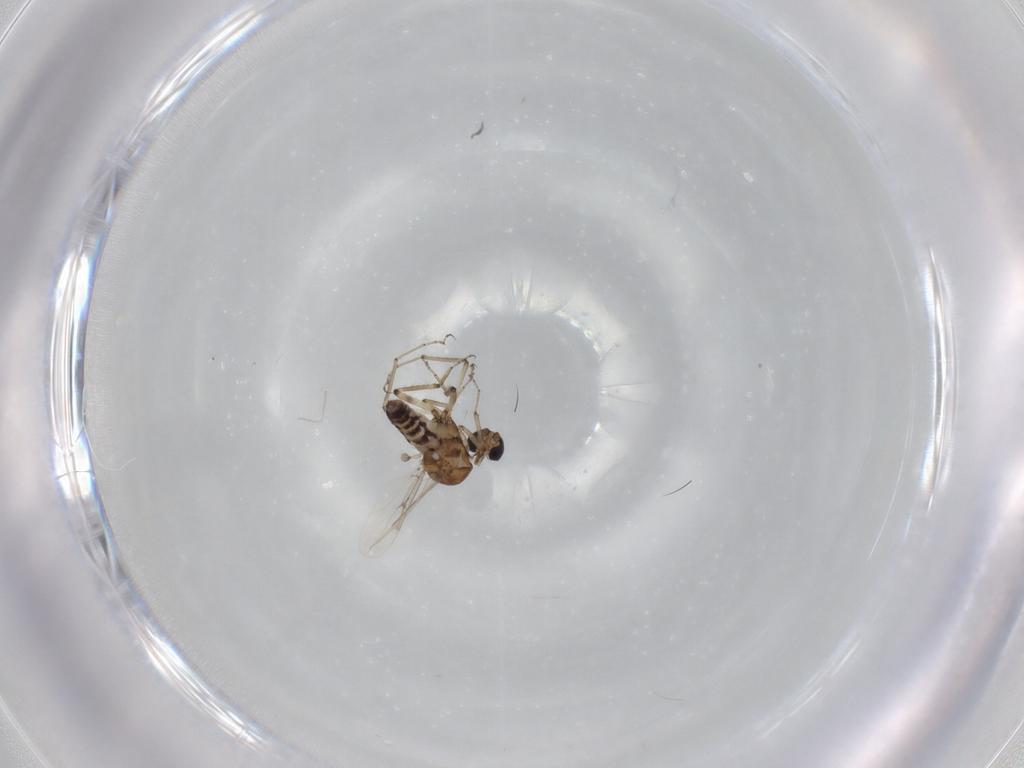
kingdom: Animalia
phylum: Arthropoda
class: Insecta
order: Diptera
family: Ceratopogonidae
